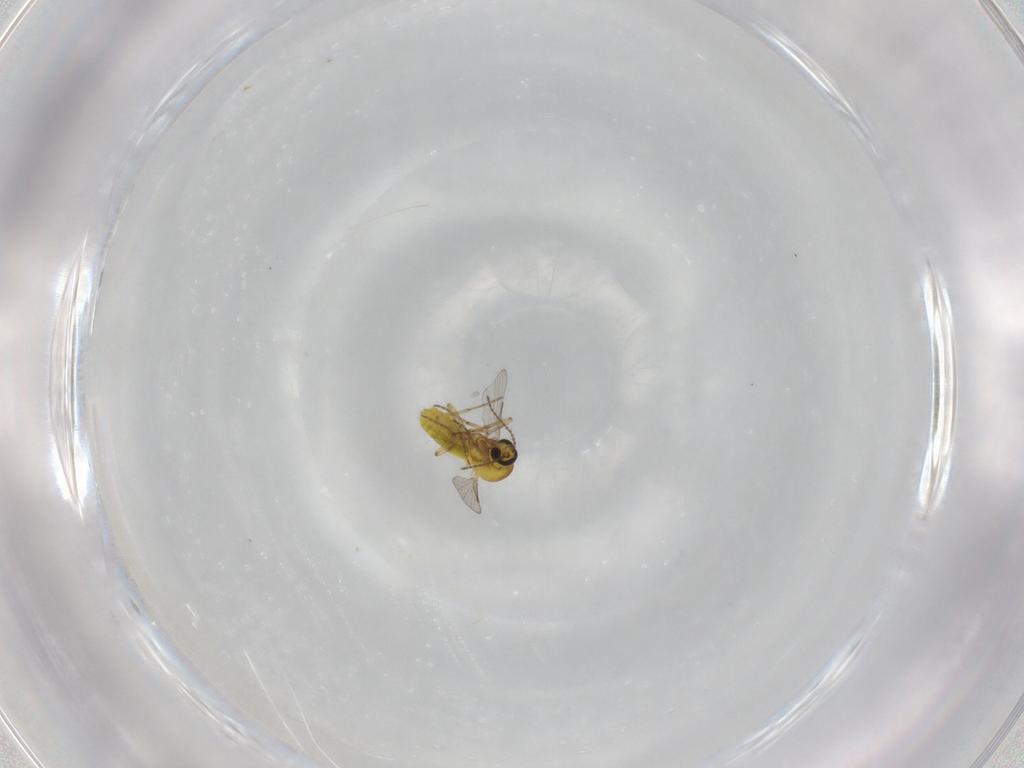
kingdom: Animalia
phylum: Arthropoda
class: Insecta
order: Diptera
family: Cecidomyiidae
